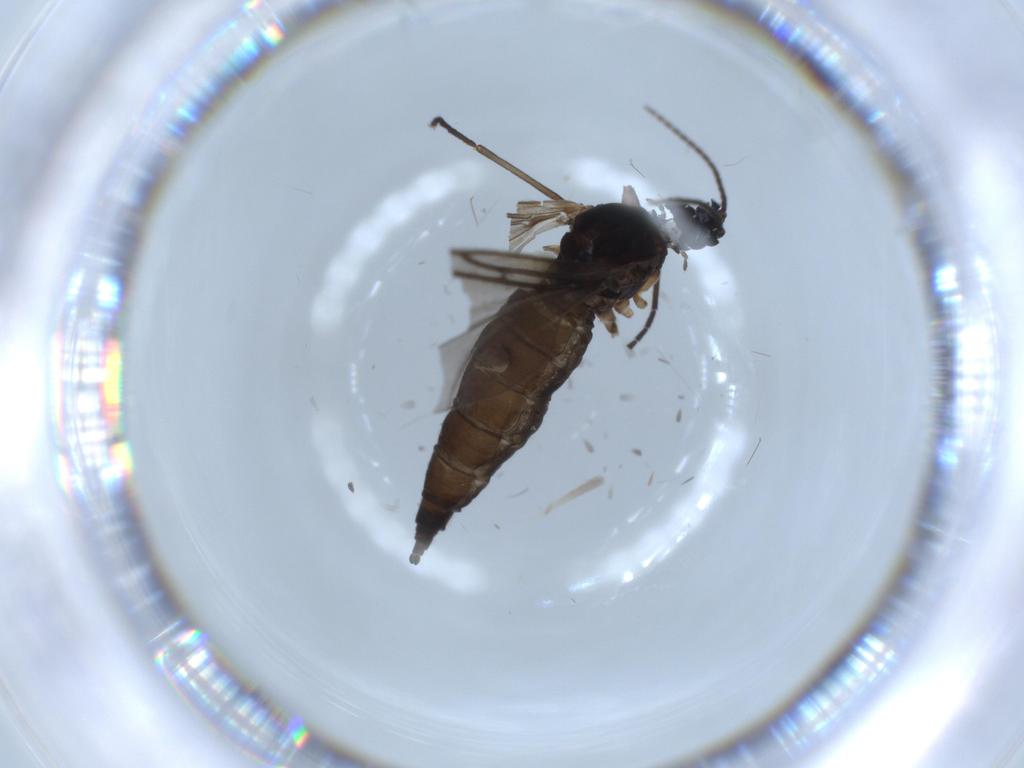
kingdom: Animalia
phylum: Arthropoda
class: Insecta
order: Diptera
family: Sciaridae
